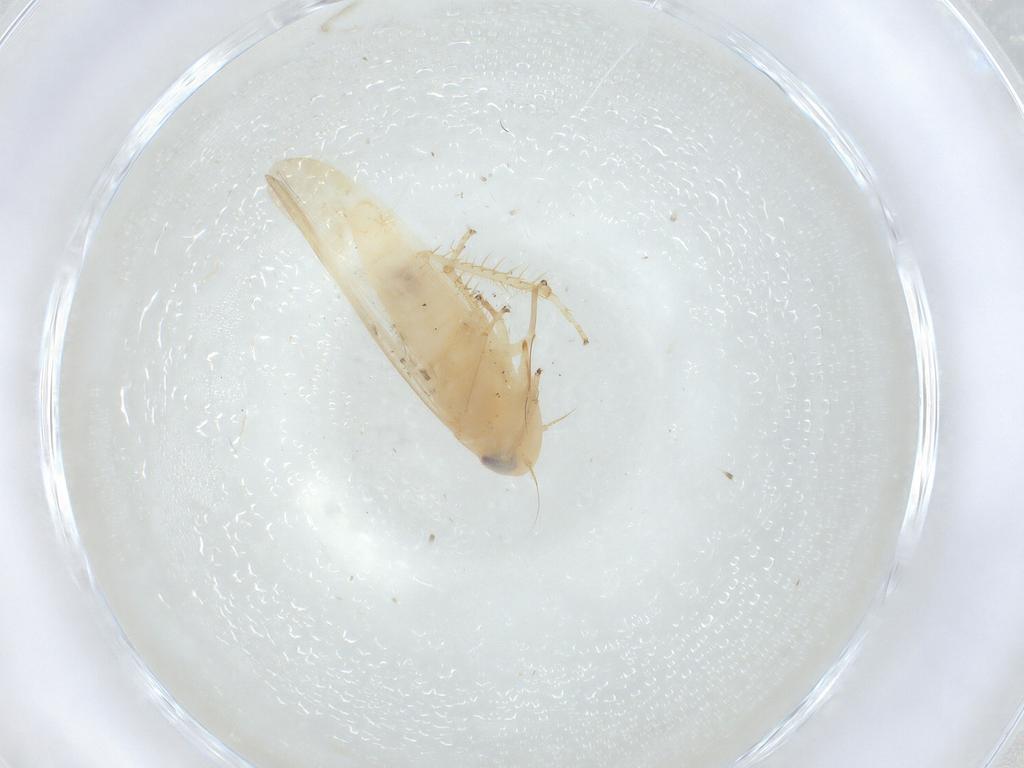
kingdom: Animalia
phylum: Arthropoda
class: Insecta
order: Hemiptera
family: Cicadellidae
